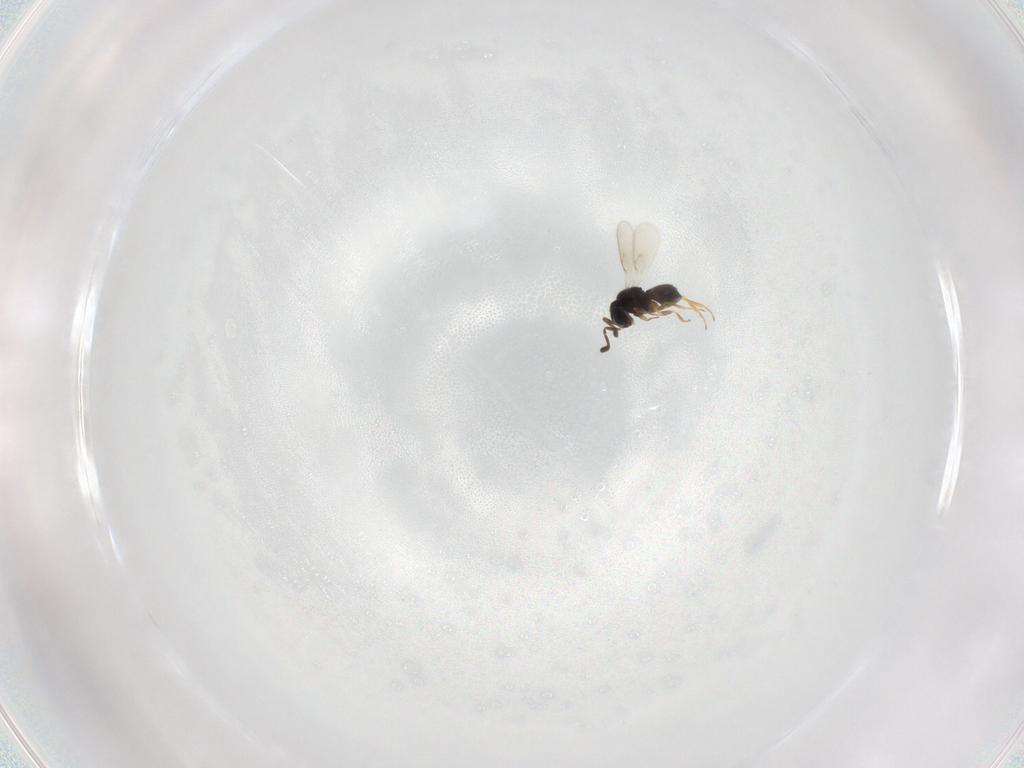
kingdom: Animalia
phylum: Arthropoda
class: Insecta
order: Hymenoptera
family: Scelionidae
